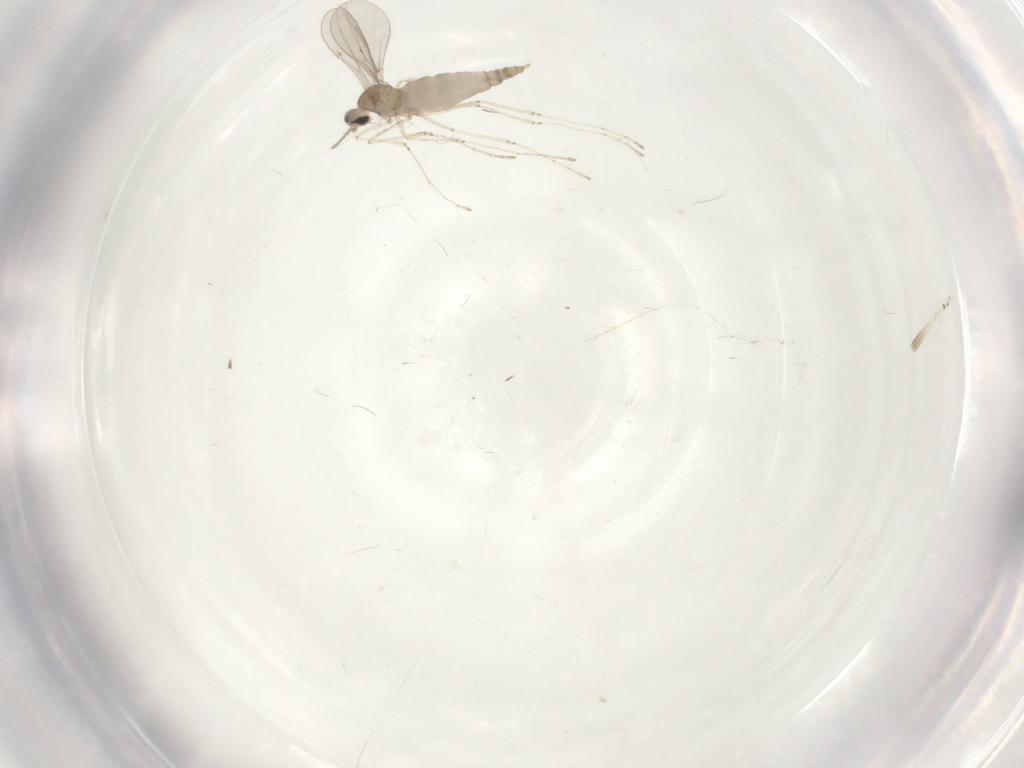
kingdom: Animalia
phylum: Arthropoda
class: Insecta
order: Diptera
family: Cecidomyiidae
